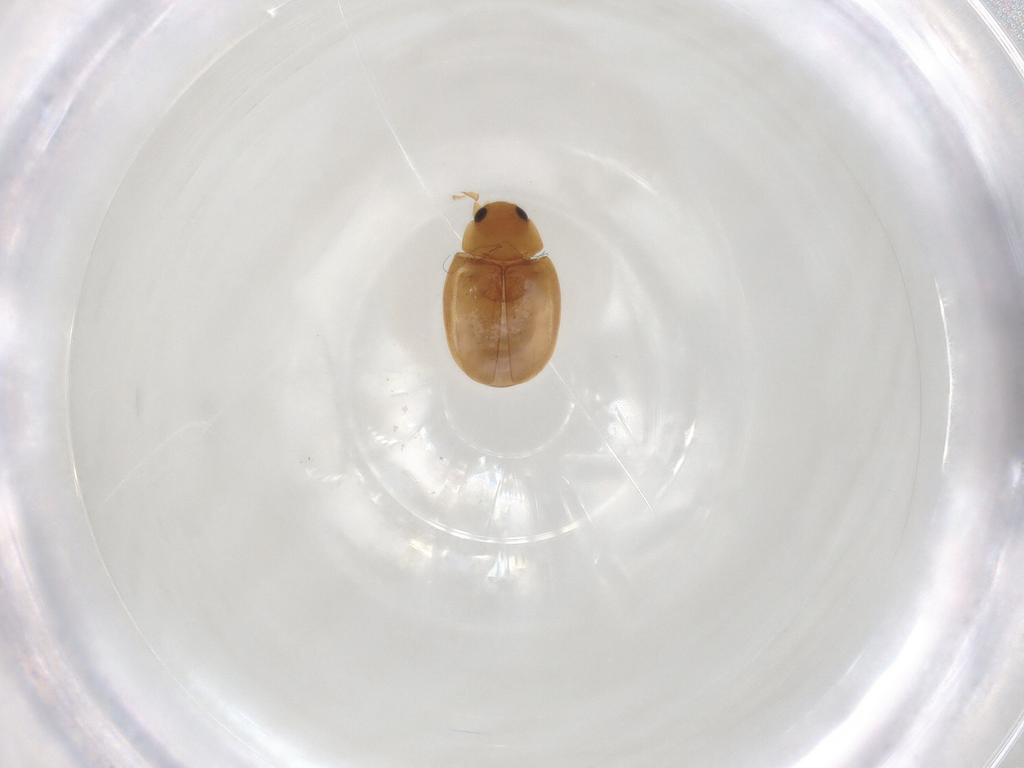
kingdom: Animalia
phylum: Arthropoda
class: Insecta
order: Coleoptera
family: Coccinellidae
